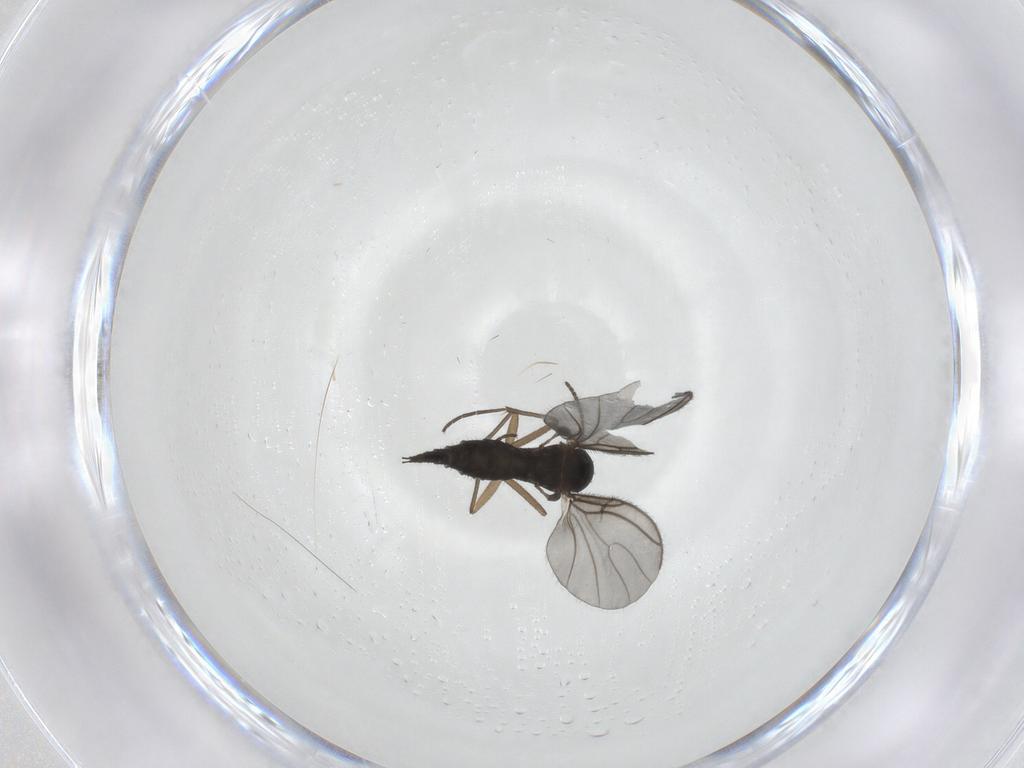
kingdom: Animalia
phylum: Arthropoda
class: Insecta
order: Diptera
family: Sciaridae
